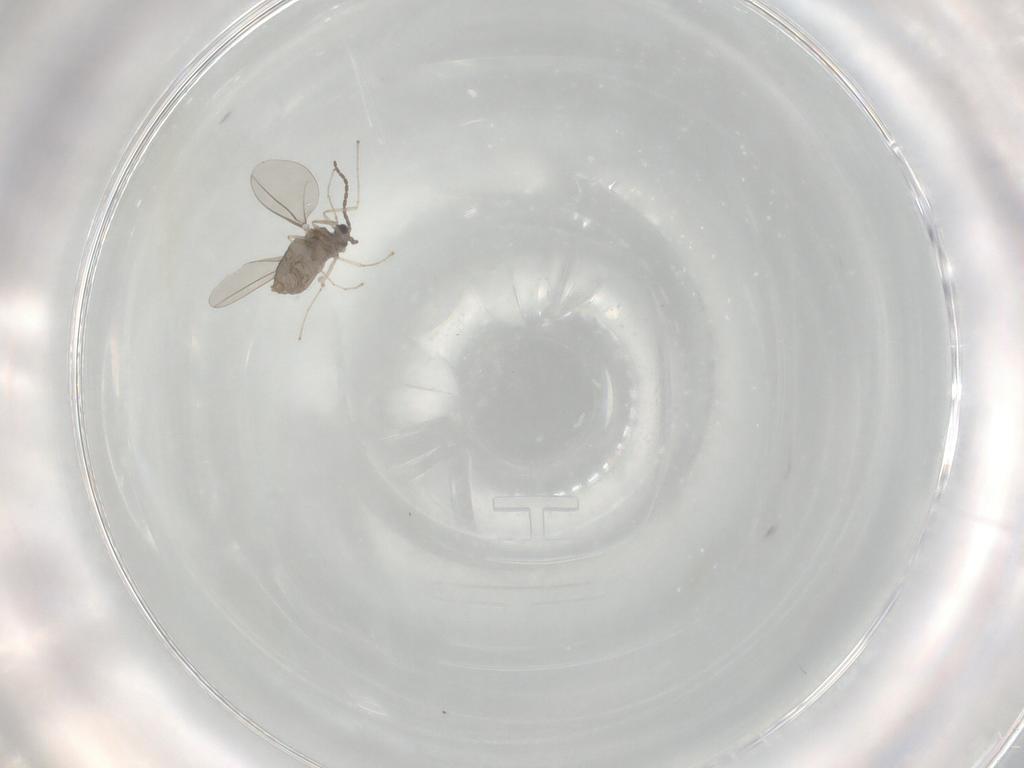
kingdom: Animalia
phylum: Arthropoda
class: Insecta
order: Diptera
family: Cecidomyiidae
